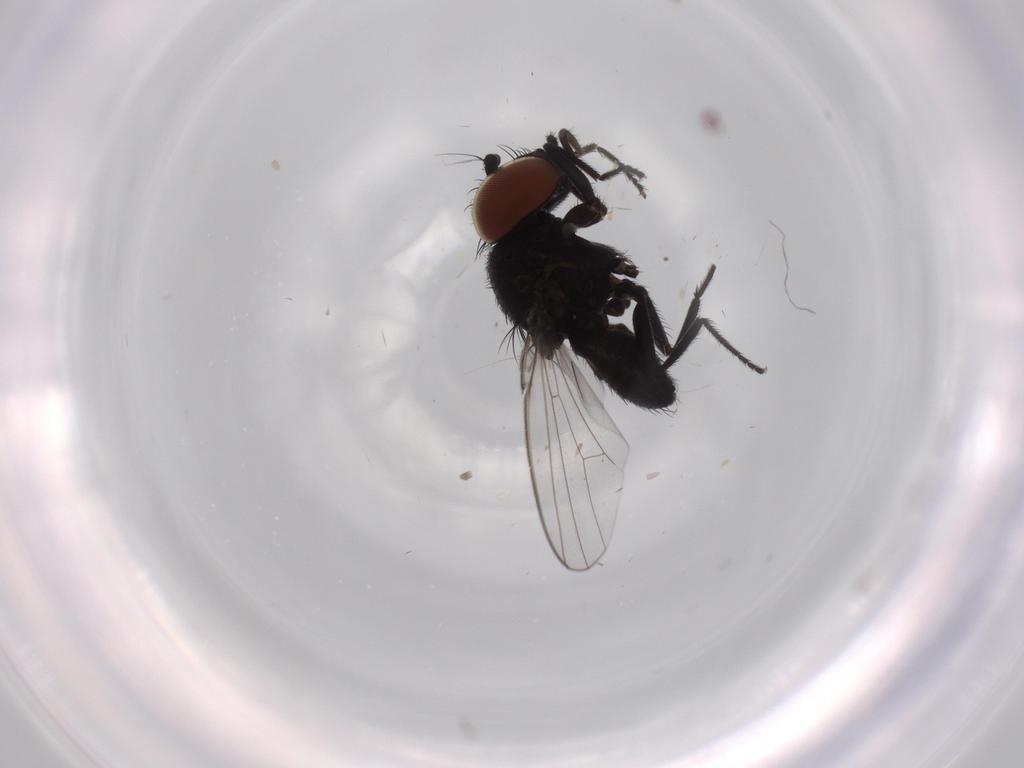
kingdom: Animalia
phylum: Arthropoda
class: Insecta
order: Diptera
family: Milichiidae
